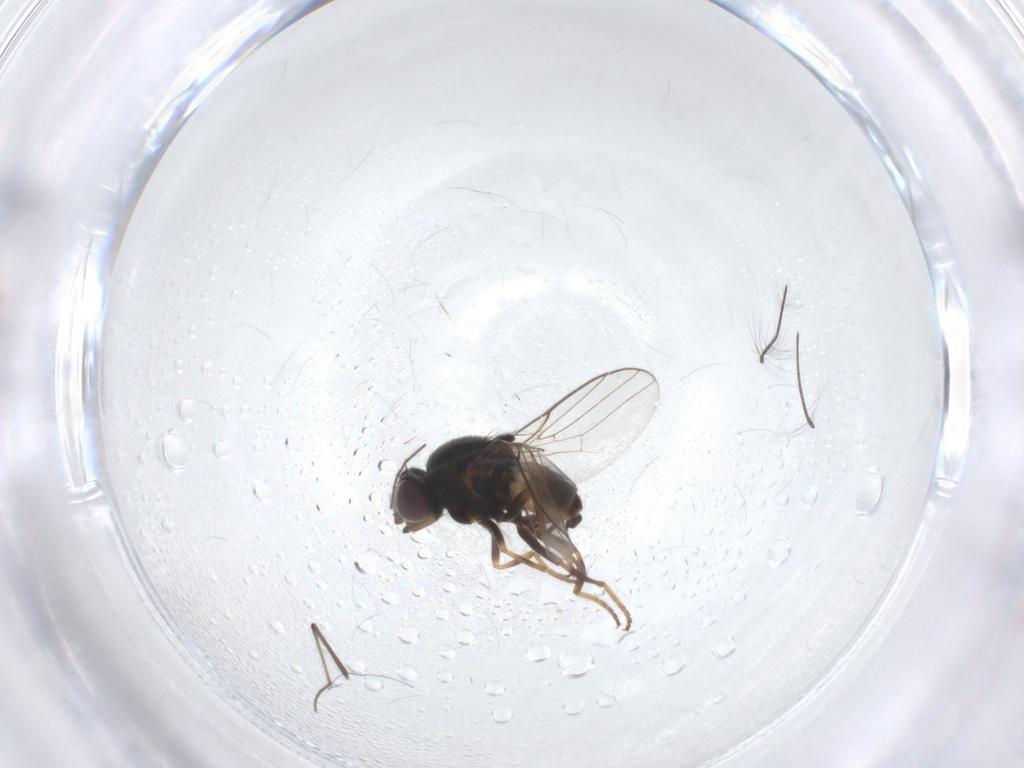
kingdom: Animalia
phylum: Arthropoda
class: Insecta
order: Diptera
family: Chloropidae
